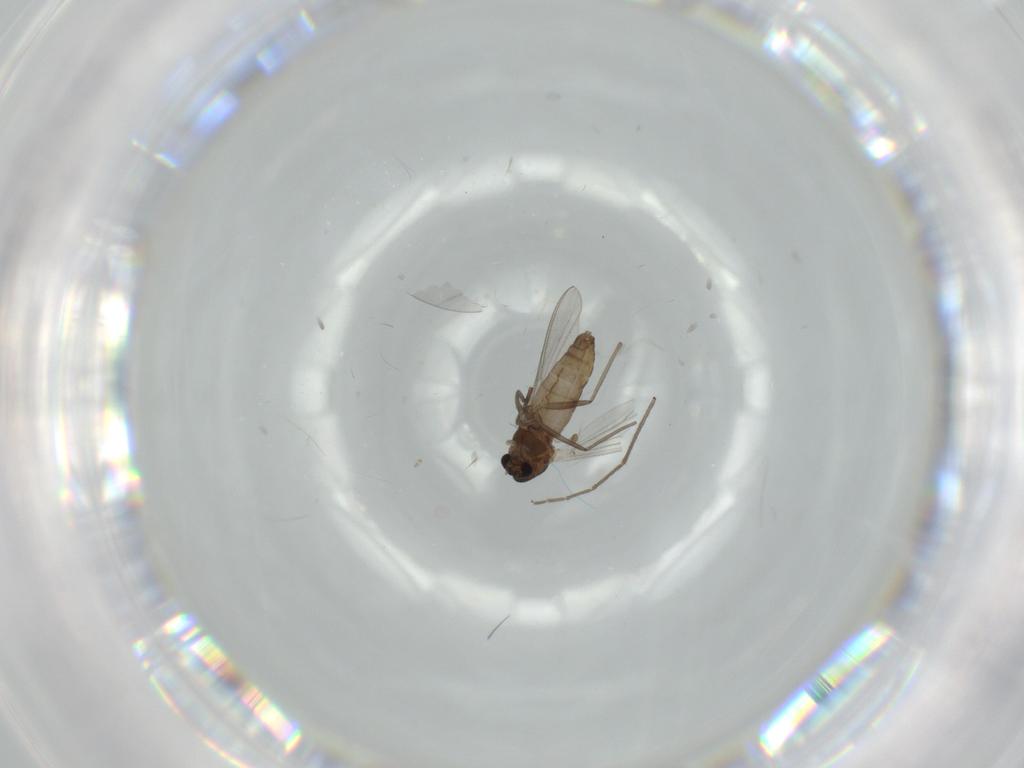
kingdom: Animalia
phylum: Arthropoda
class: Insecta
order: Diptera
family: Chironomidae
